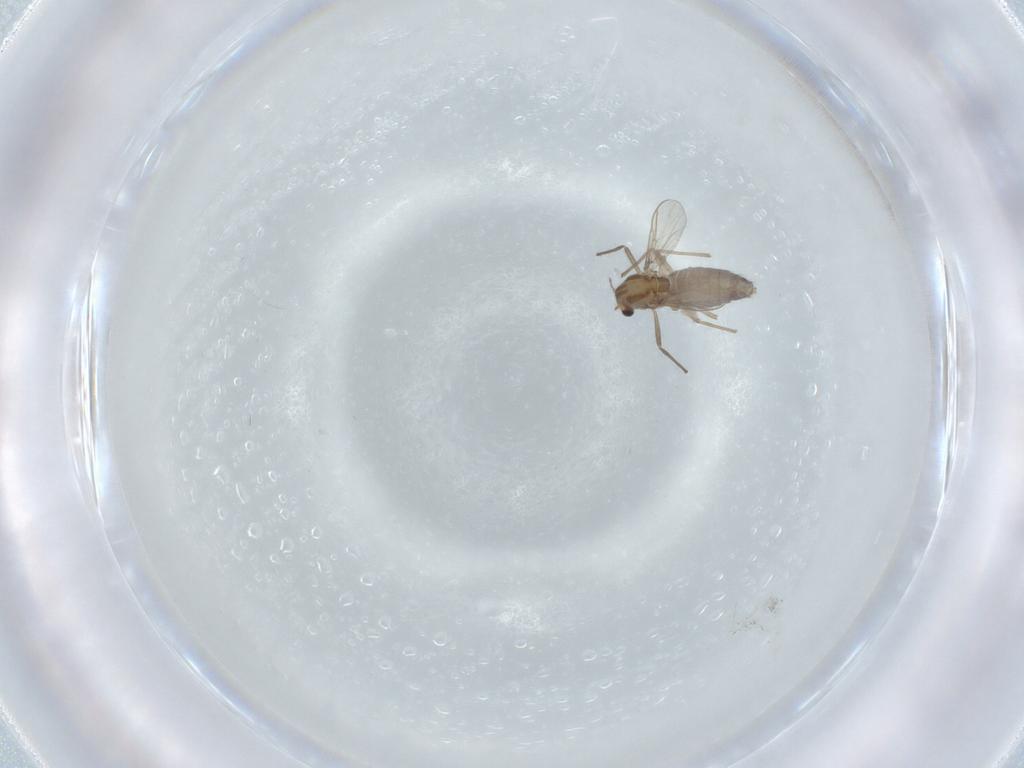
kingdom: Animalia
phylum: Arthropoda
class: Insecta
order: Diptera
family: Chironomidae
